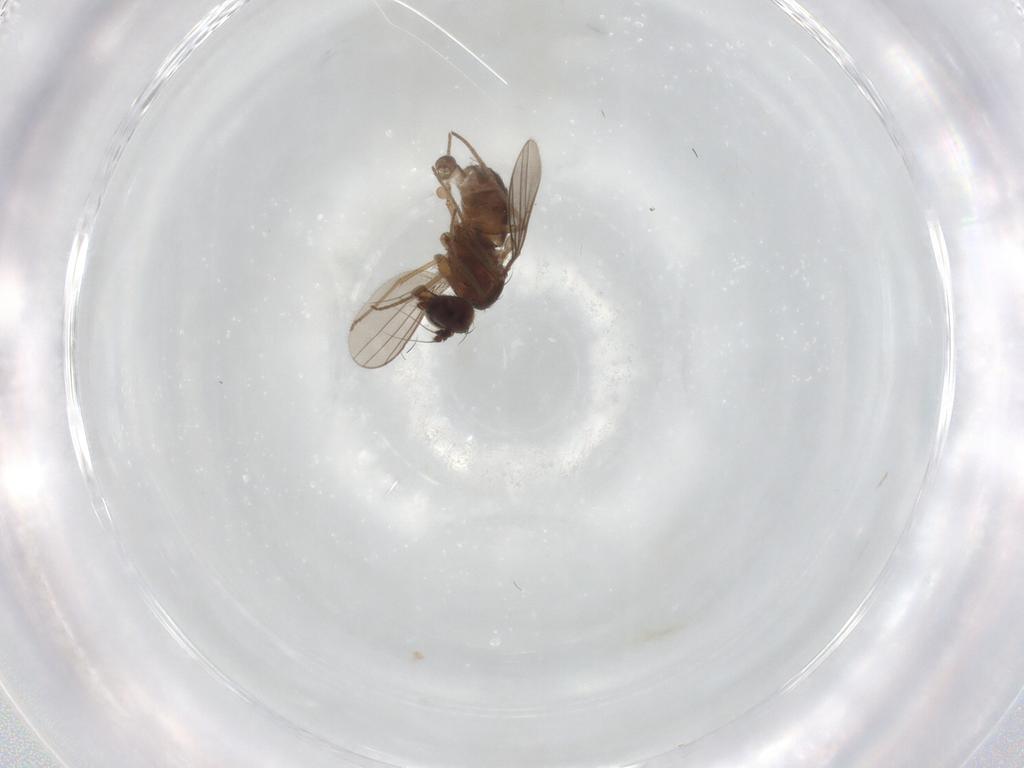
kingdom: Animalia
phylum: Arthropoda
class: Insecta
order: Diptera
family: Dolichopodidae
